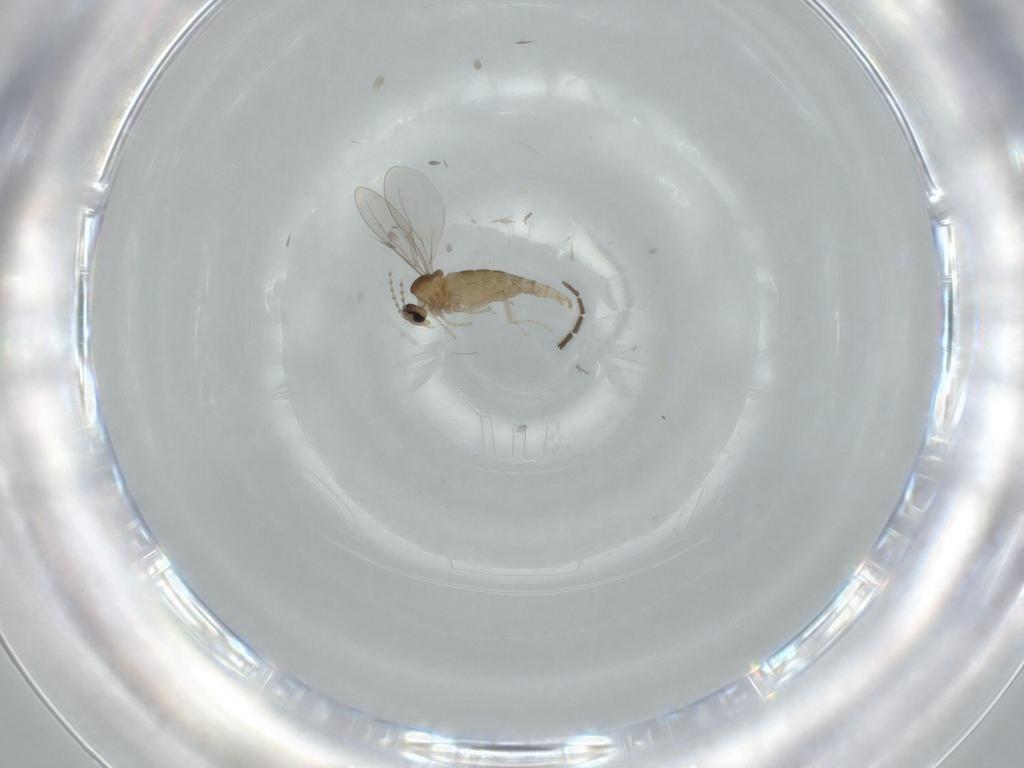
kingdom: Animalia
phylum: Arthropoda
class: Insecta
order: Diptera
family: Cecidomyiidae
